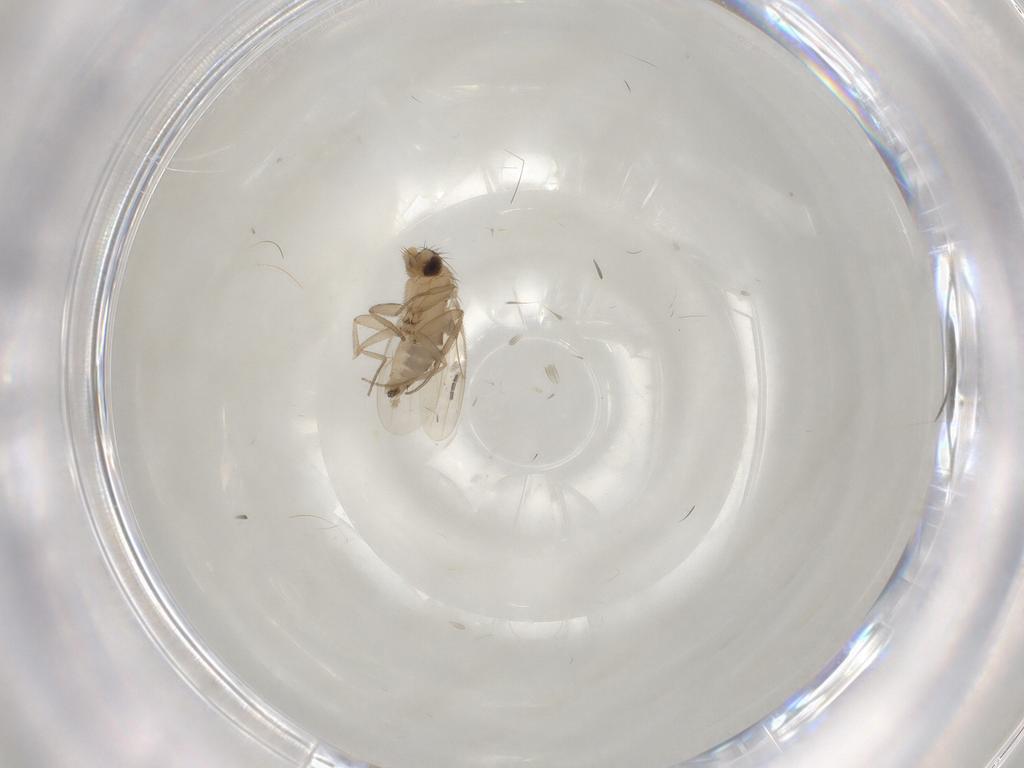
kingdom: Animalia
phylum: Arthropoda
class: Insecta
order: Diptera
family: Sciaridae
